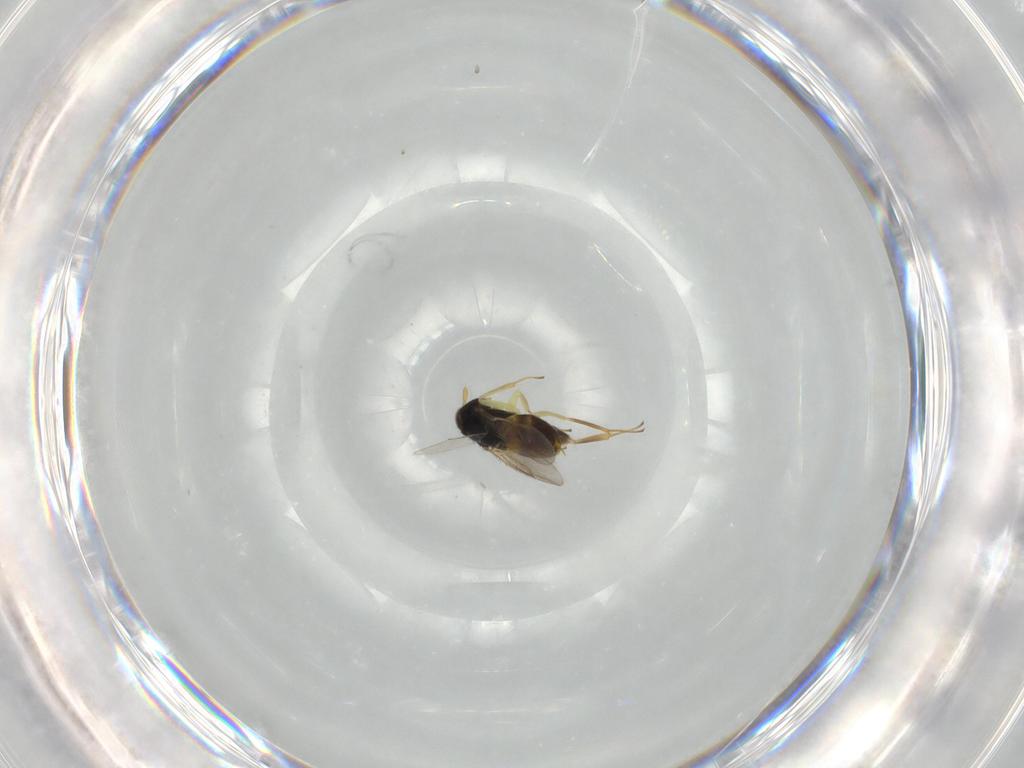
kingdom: Animalia
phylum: Arthropoda
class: Insecta
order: Hymenoptera
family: Aphelinidae
